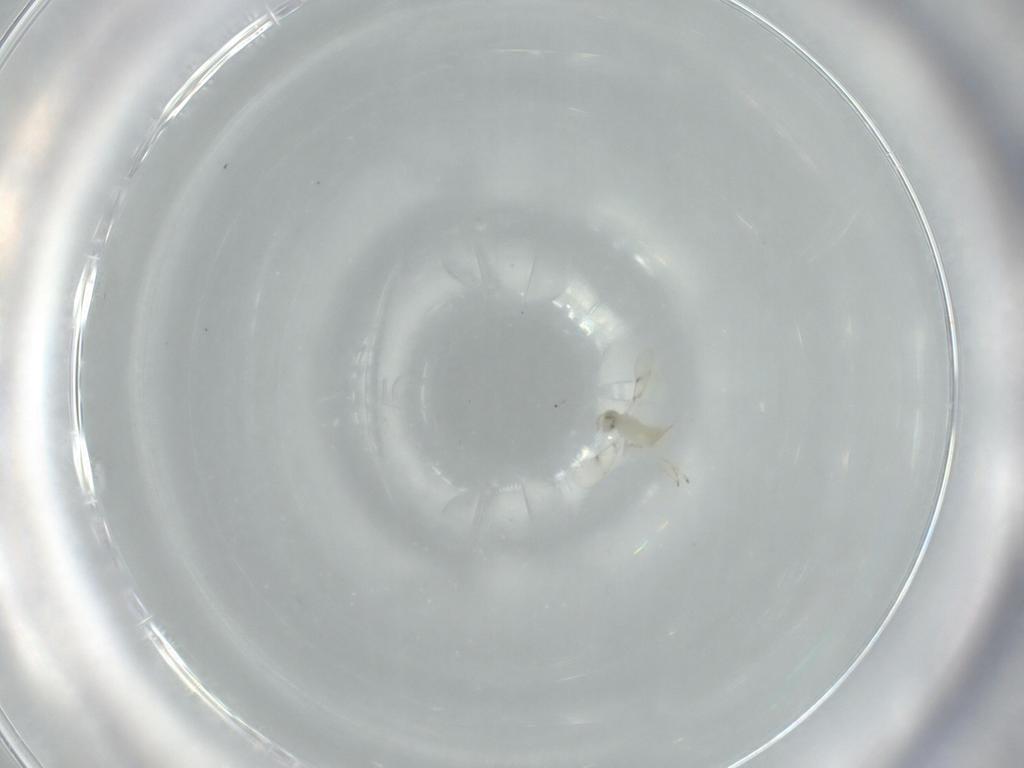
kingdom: Animalia
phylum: Arthropoda
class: Insecta
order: Hymenoptera
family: Aphelinidae
